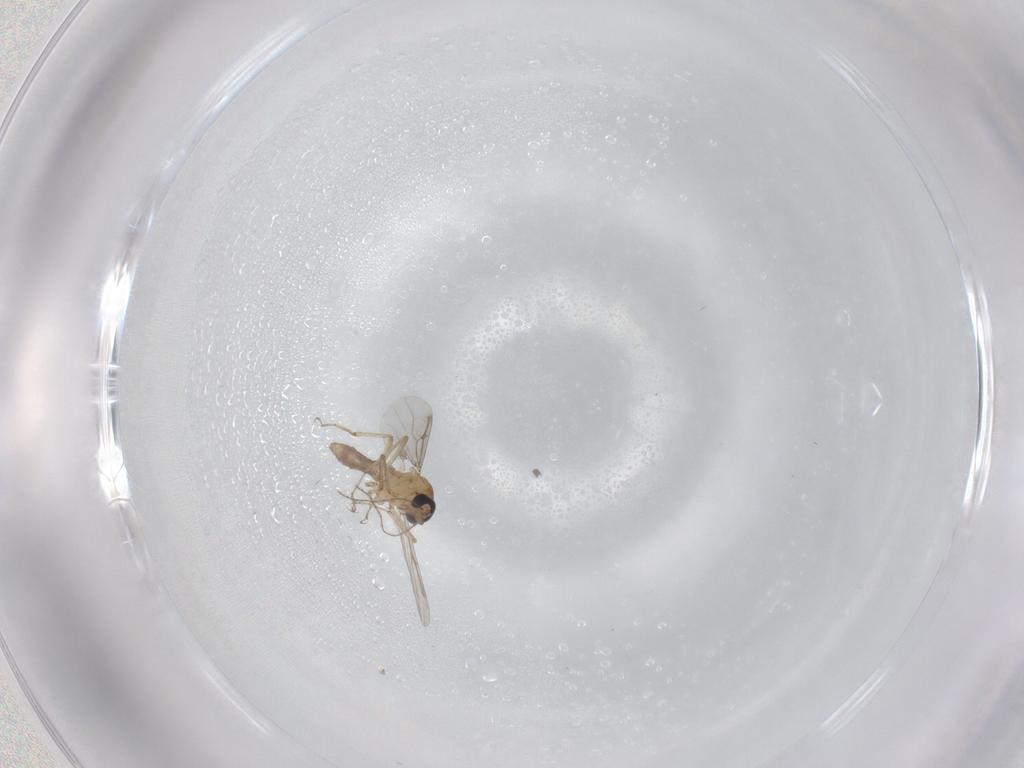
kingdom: Animalia
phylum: Arthropoda
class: Insecta
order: Diptera
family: Ceratopogonidae
